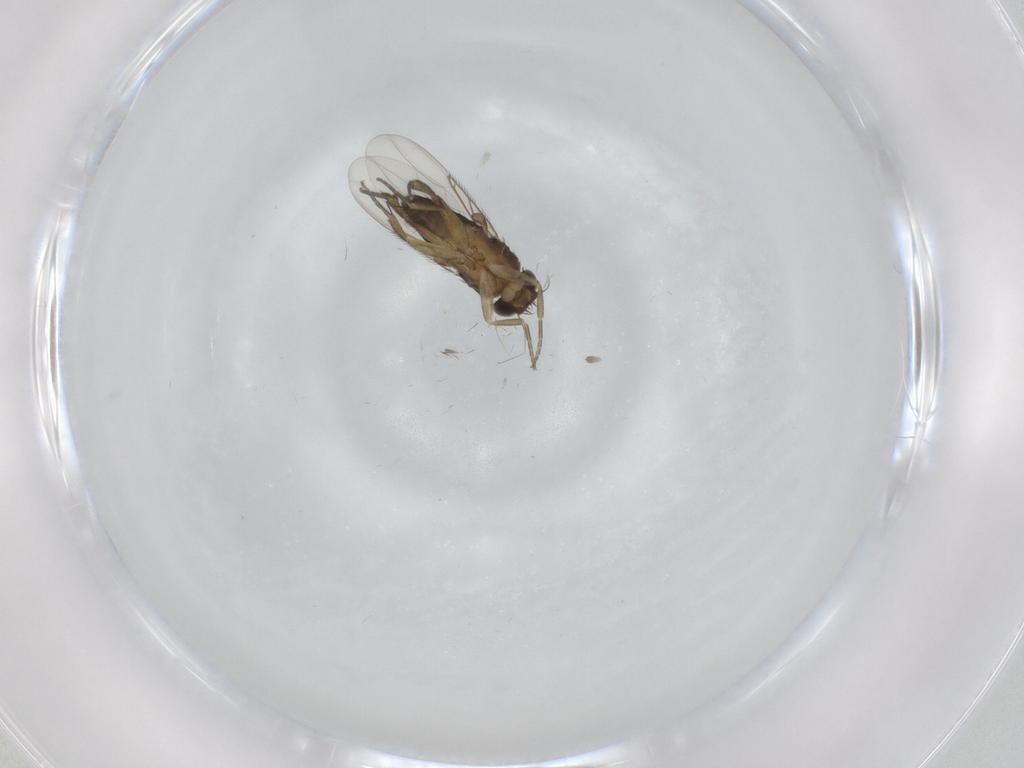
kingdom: Animalia
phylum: Arthropoda
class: Insecta
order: Diptera
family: Phoridae
